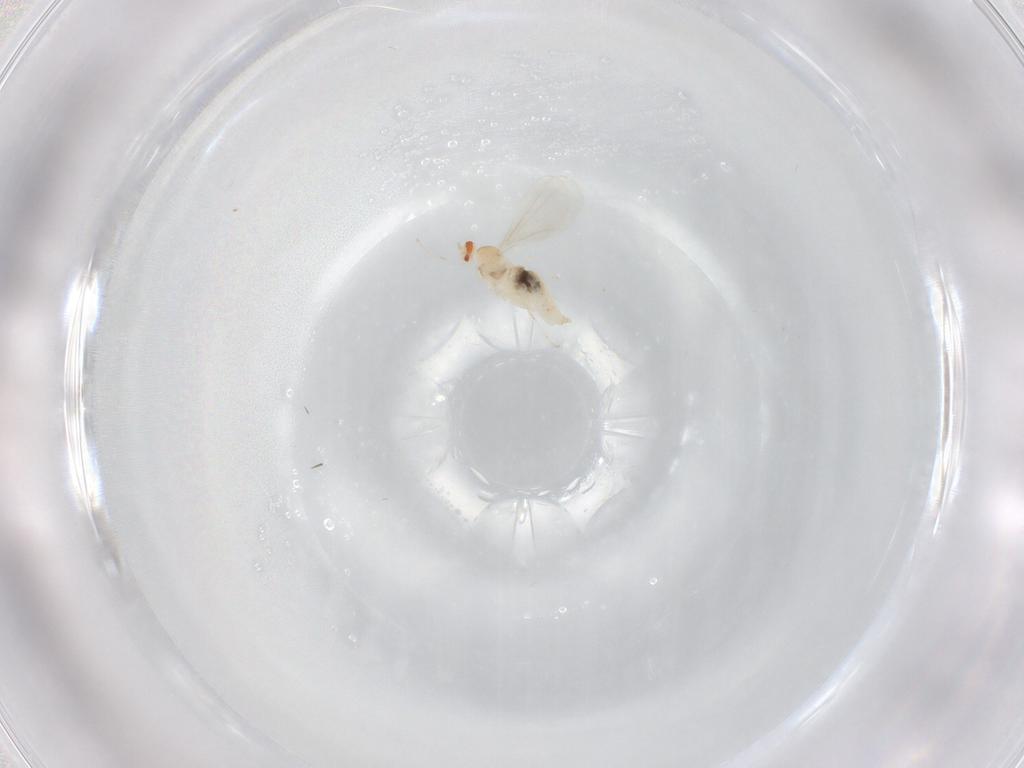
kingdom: Animalia
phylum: Arthropoda
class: Insecta
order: Diptera
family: Cecidomyiidae
